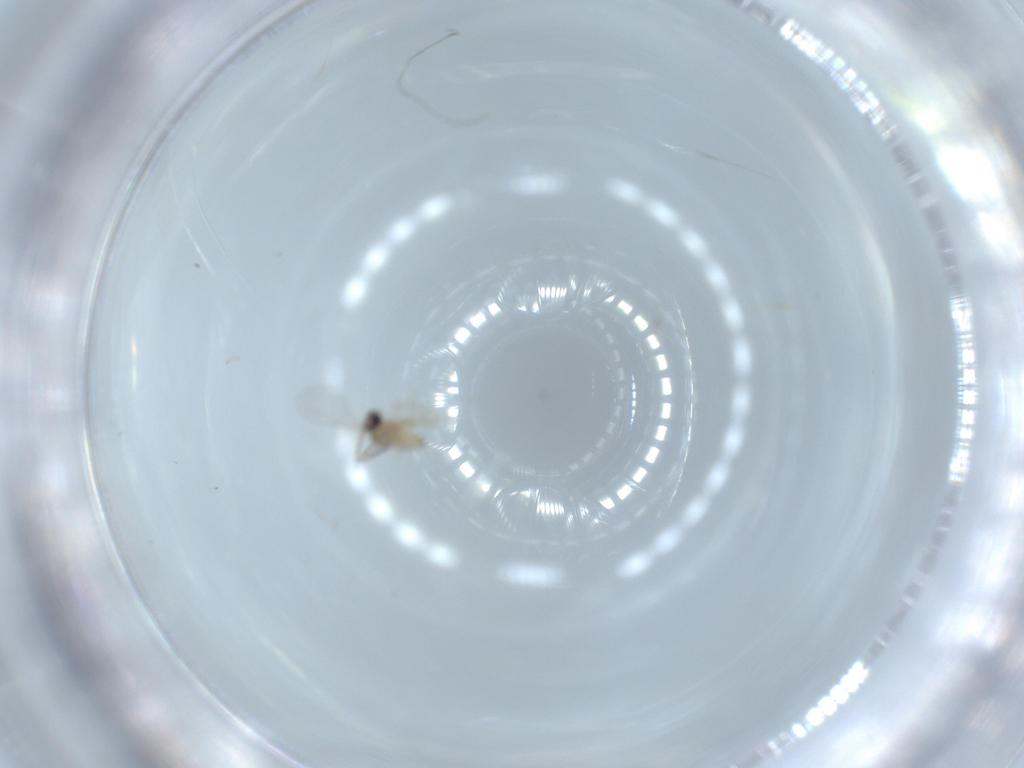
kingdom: Animalia
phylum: Arthropoda
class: Insecta
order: Diptera
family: Cecidomyiidae
